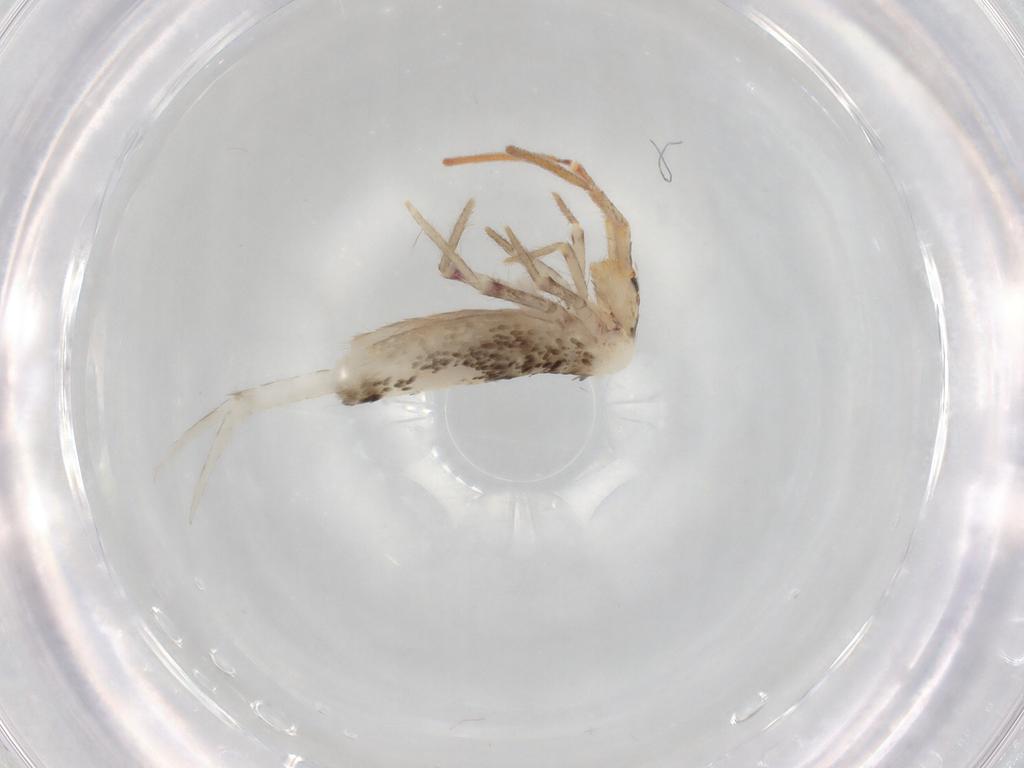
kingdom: Animalia
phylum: Arthropoda
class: Collembola
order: Poduromorpha
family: Hypogastruridae
